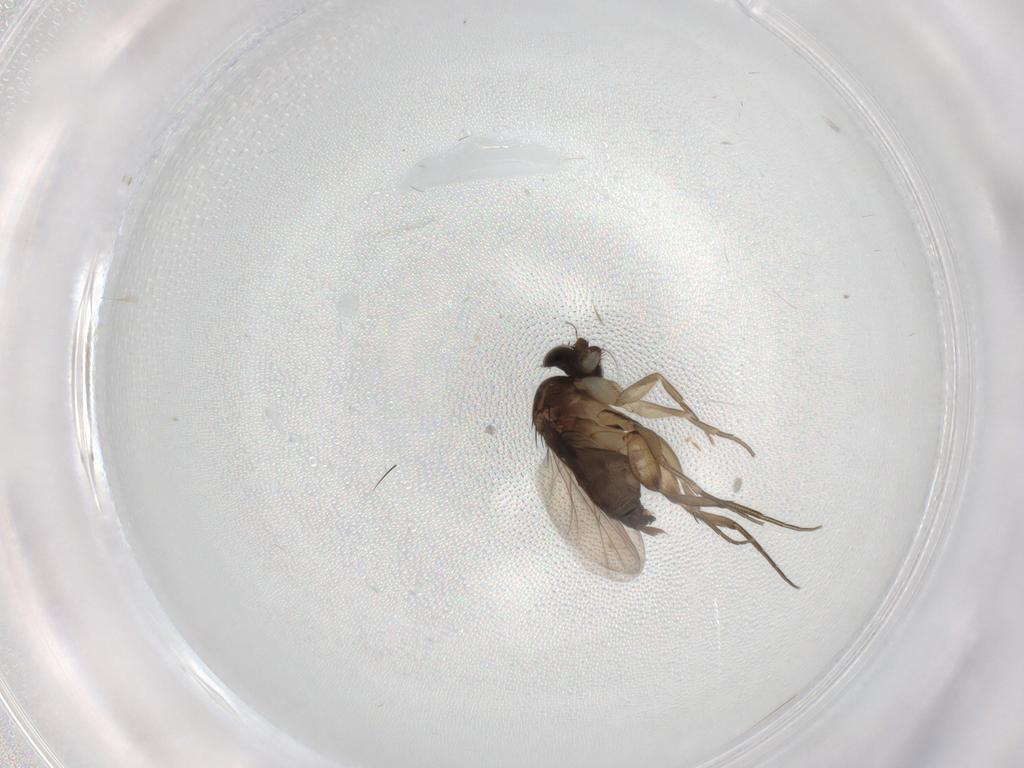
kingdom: Animalia
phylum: Arthropoda
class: Insecta
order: Diptera
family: Phoridae
